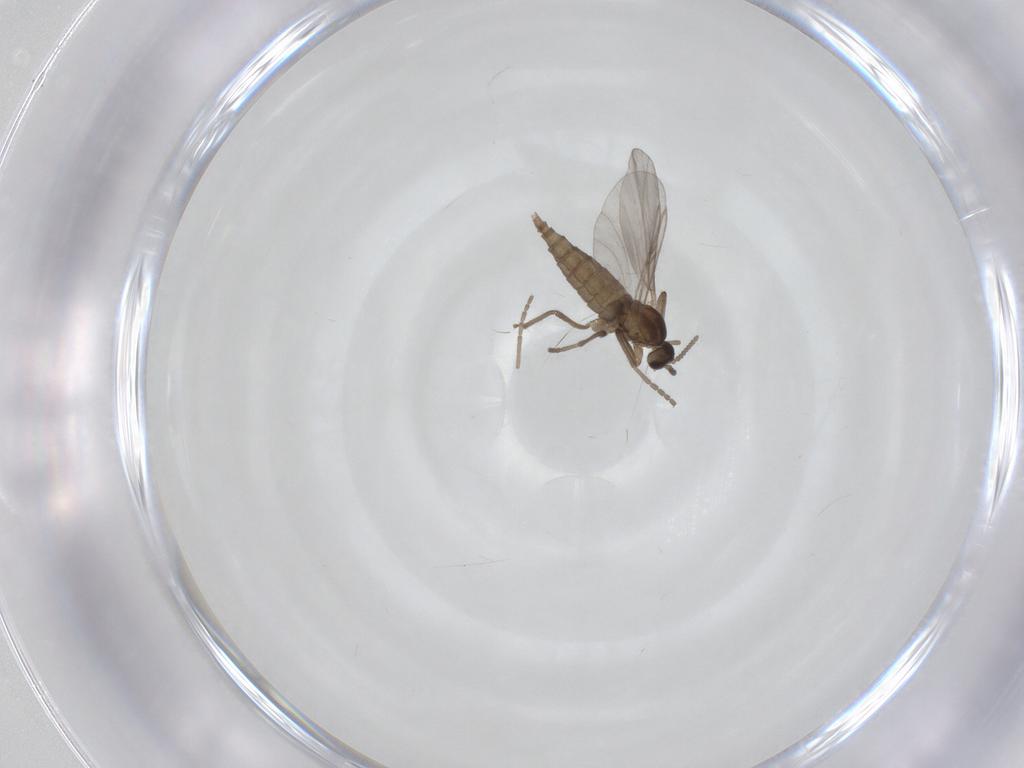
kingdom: Animalia
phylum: Arthropoda
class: Insecta
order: Diptera
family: Cecidomyiidae
